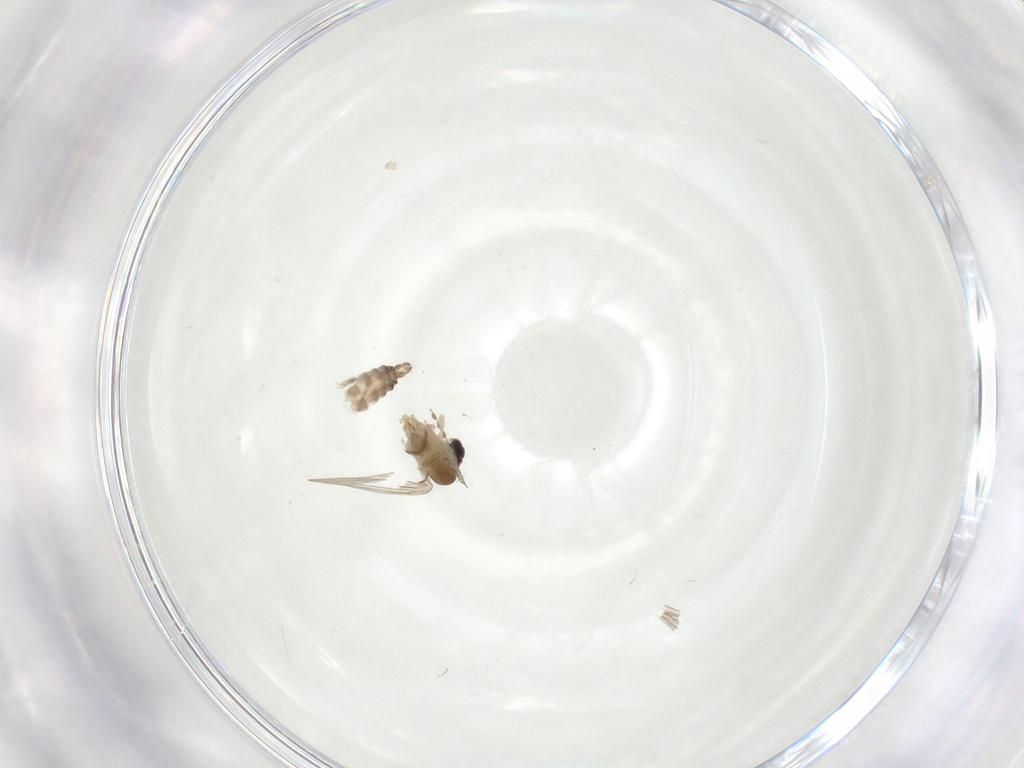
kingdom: Animalia
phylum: Arthropoda
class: Insecta
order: Diptera
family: Psychodidae
